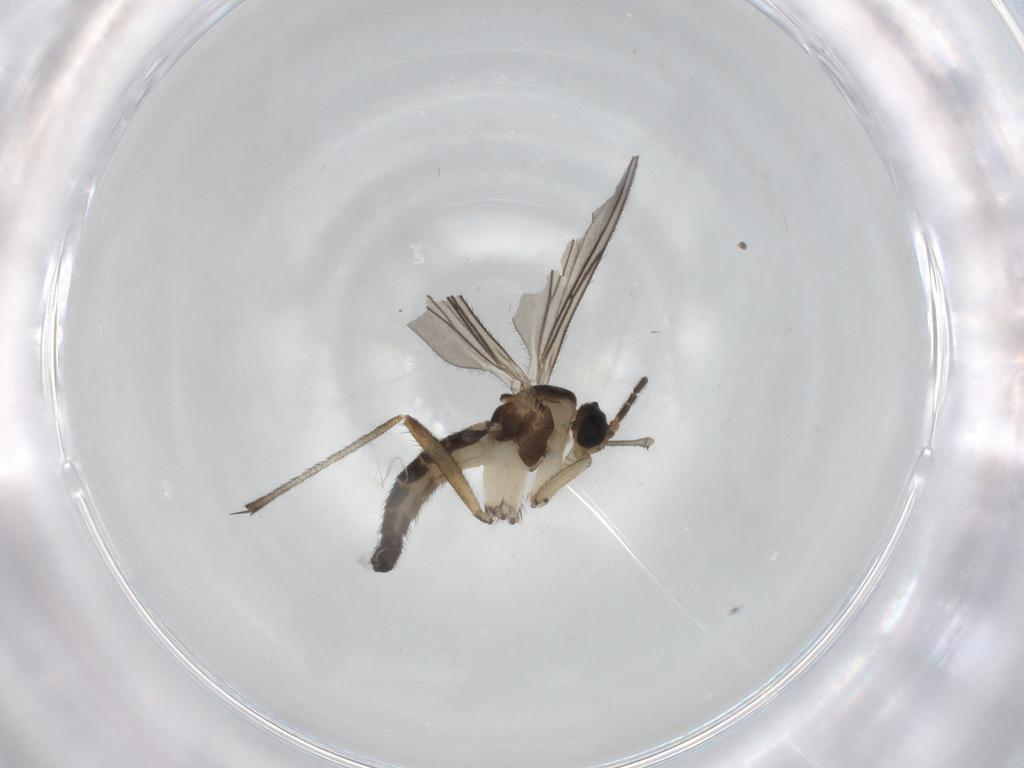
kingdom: Animalia
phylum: Arthropoda
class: Insecta
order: Diptera
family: Sciaridae
